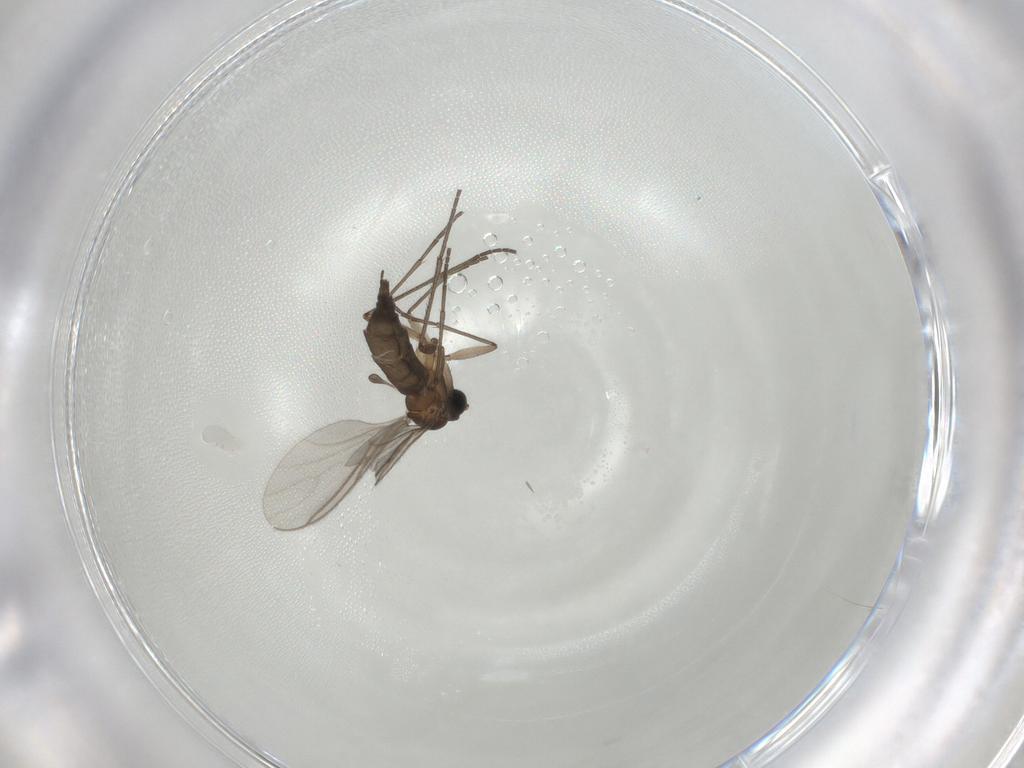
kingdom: Animalia
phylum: Arthropoda
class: Insecta
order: Diptera
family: Sciaridae
